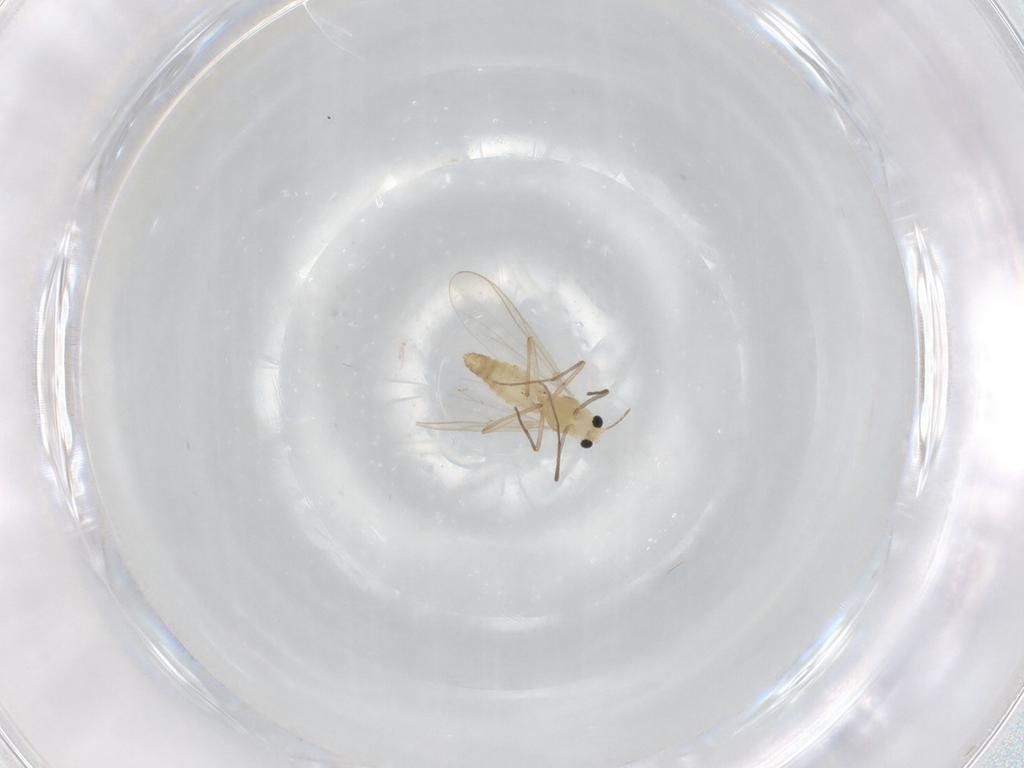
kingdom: Animalia
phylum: Arthropoda
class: Insecta
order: Diptera
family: Chironomidae
